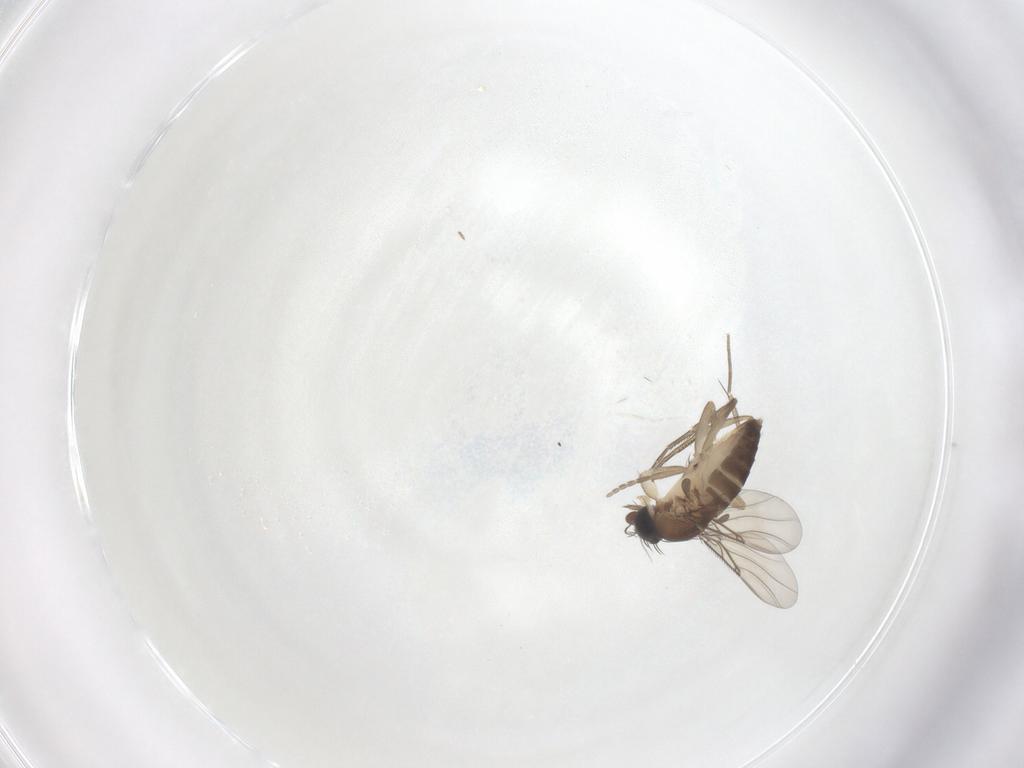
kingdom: Animalia
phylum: Arthropoda
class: Insecta
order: Diptera
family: Phoridae
